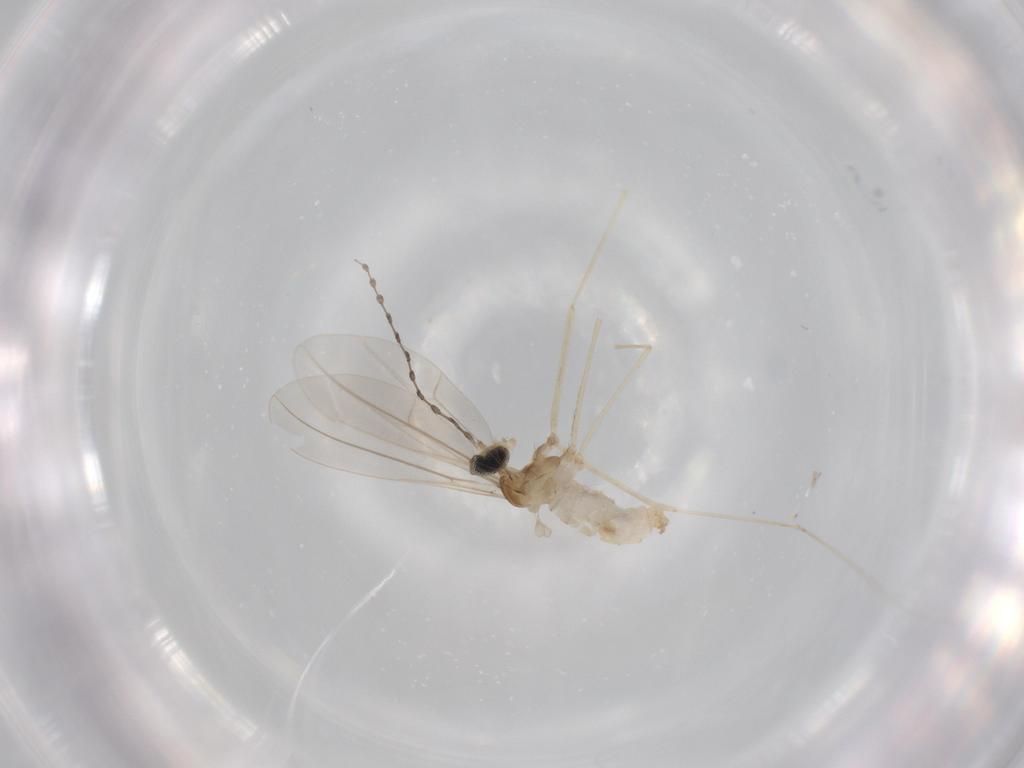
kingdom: Animalia
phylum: Arthropoda
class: Insecta
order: Diptera
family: Cecidomyiidae
